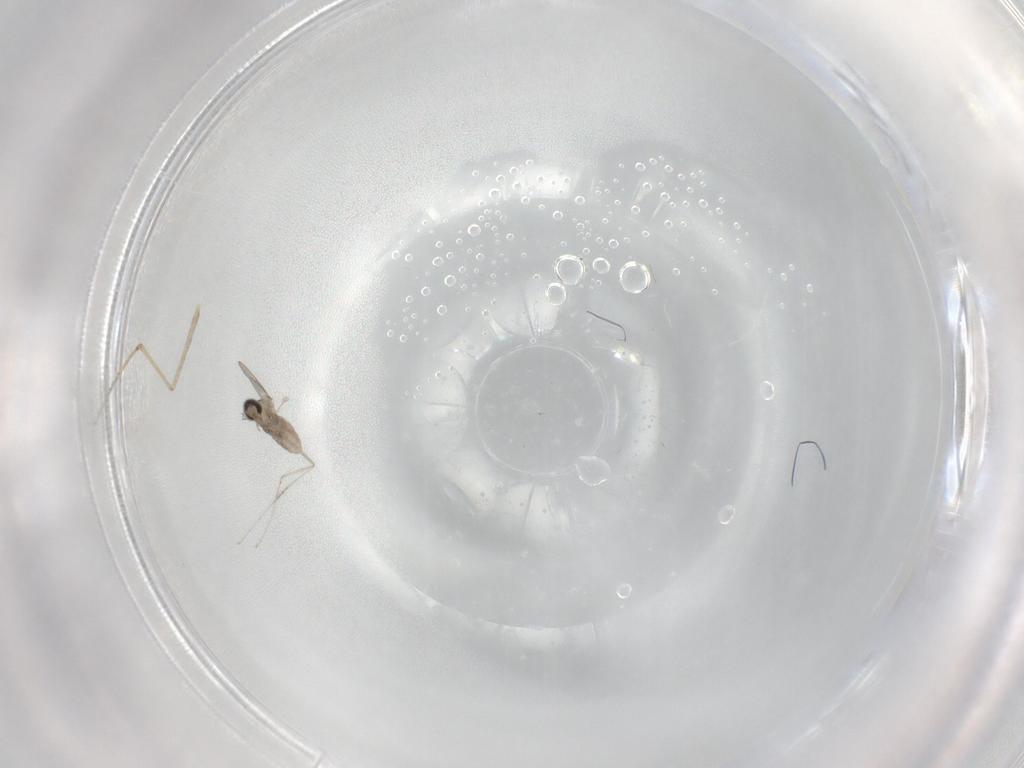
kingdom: Animalia
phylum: Arthropoda
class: Insecta
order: Diptera
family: Cecidomyiidae
